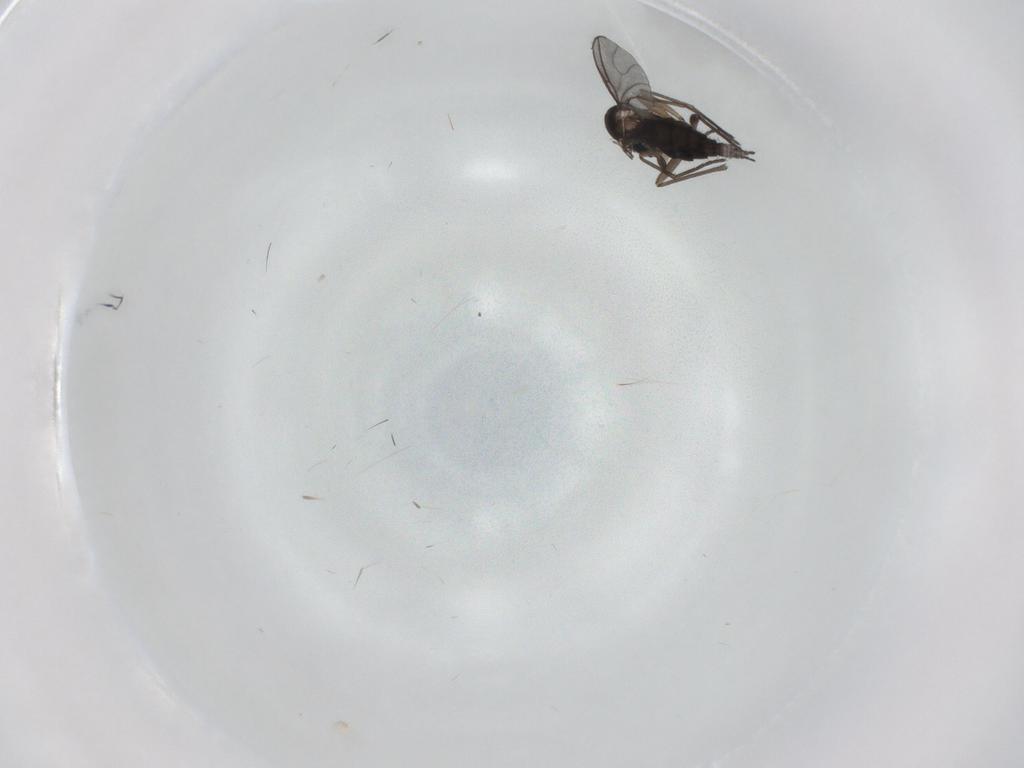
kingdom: Animalia
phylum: Arthropoda
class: Insecta
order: Diptera
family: Sciaridae
